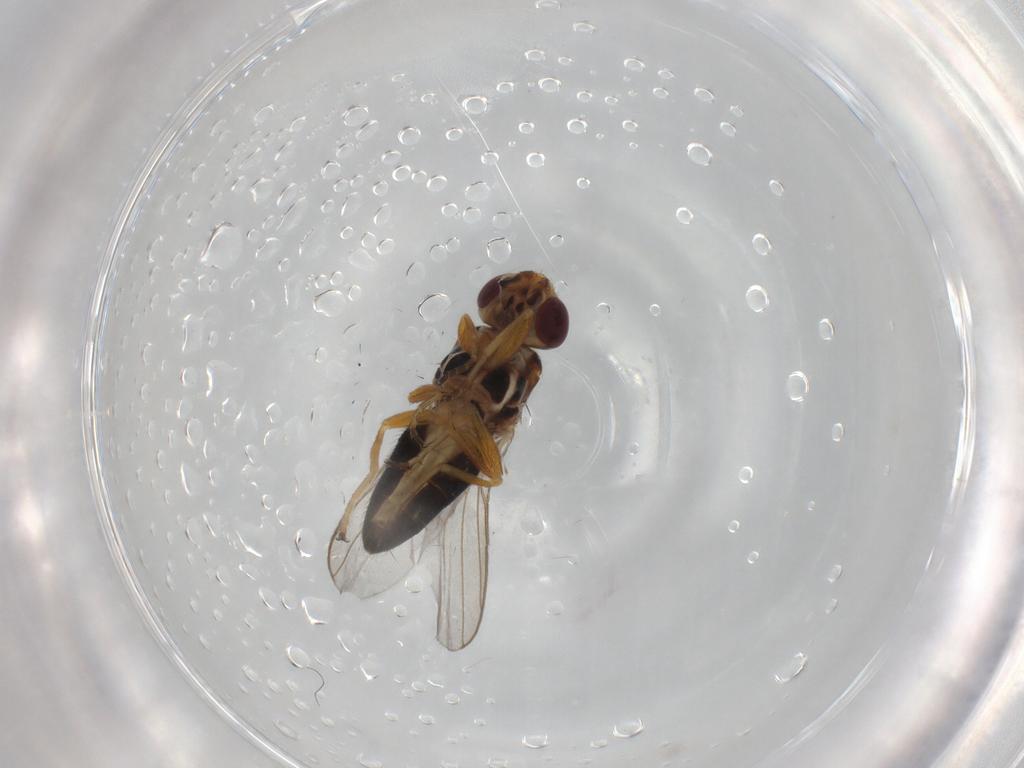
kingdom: Animalia
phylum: Arthropoda
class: Insecta
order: Diptera
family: Chloropidae
